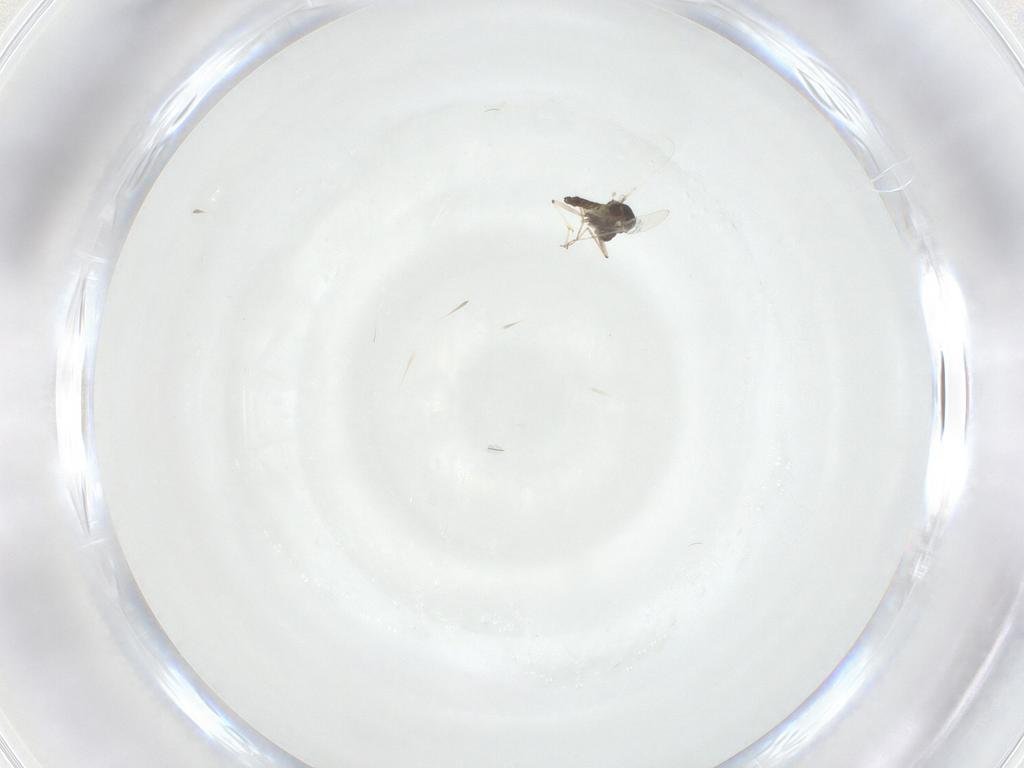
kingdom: Animalia
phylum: Arthropoda
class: Insecta
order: Diptera
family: Chironomidae
